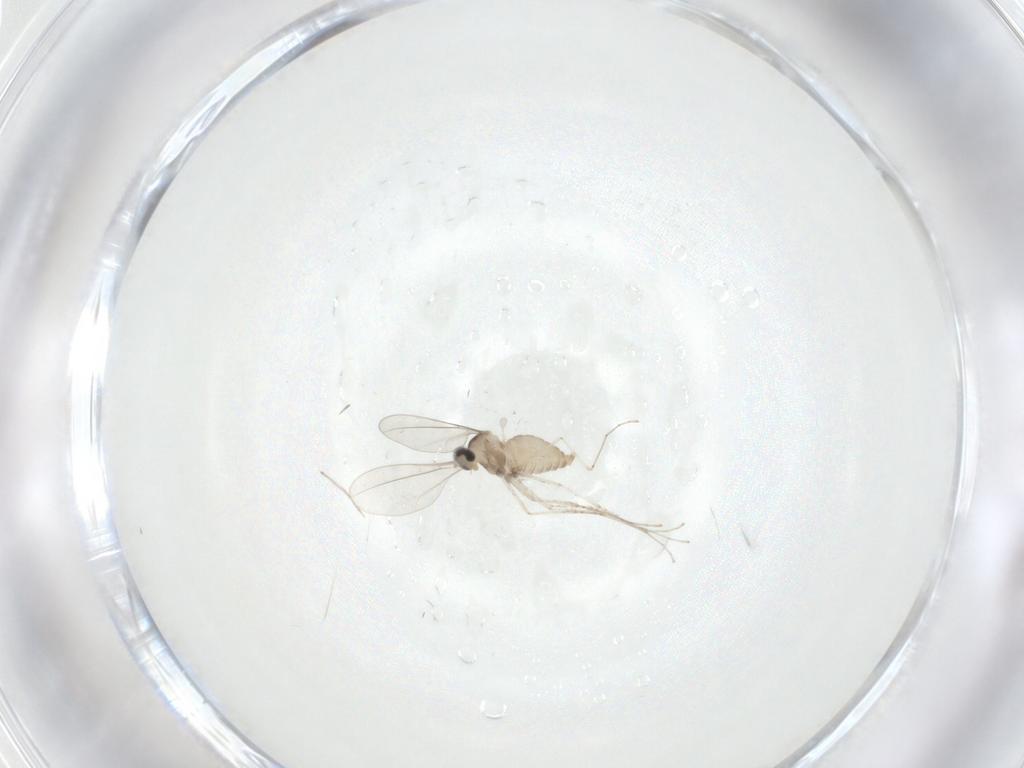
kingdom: Animalia
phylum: Arthropoda
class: Insecta
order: Diptera
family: Cecidomyiidae
